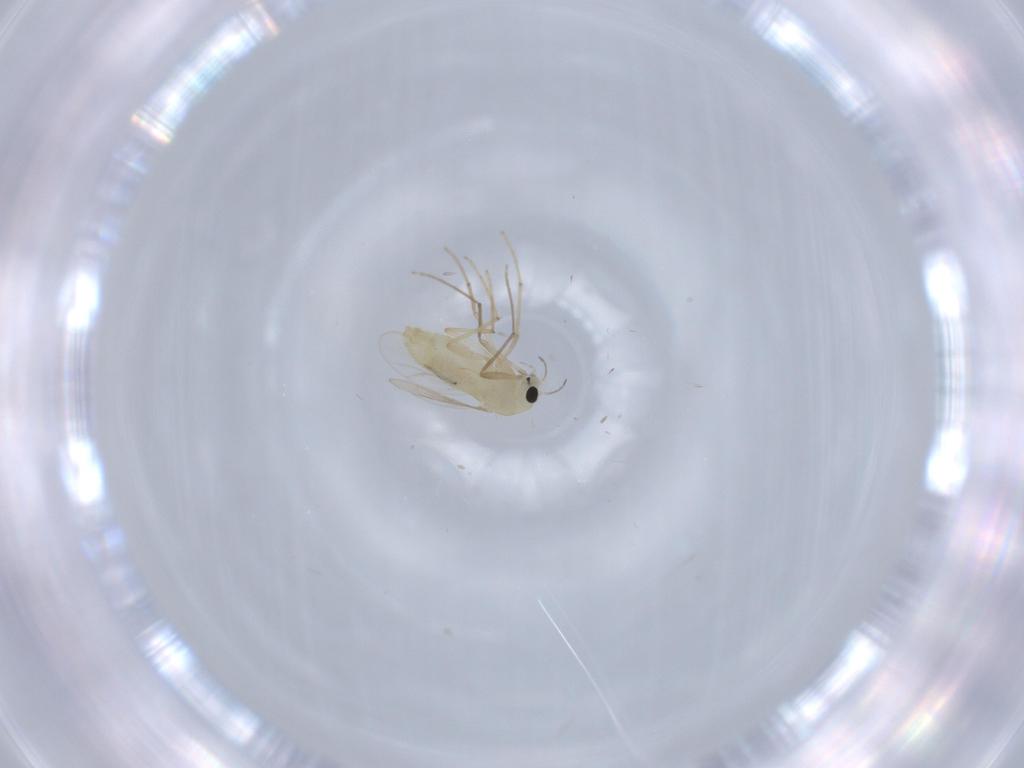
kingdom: Animalia
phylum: Arthropoda
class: Insecta
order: Diptera
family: Chironomidae
